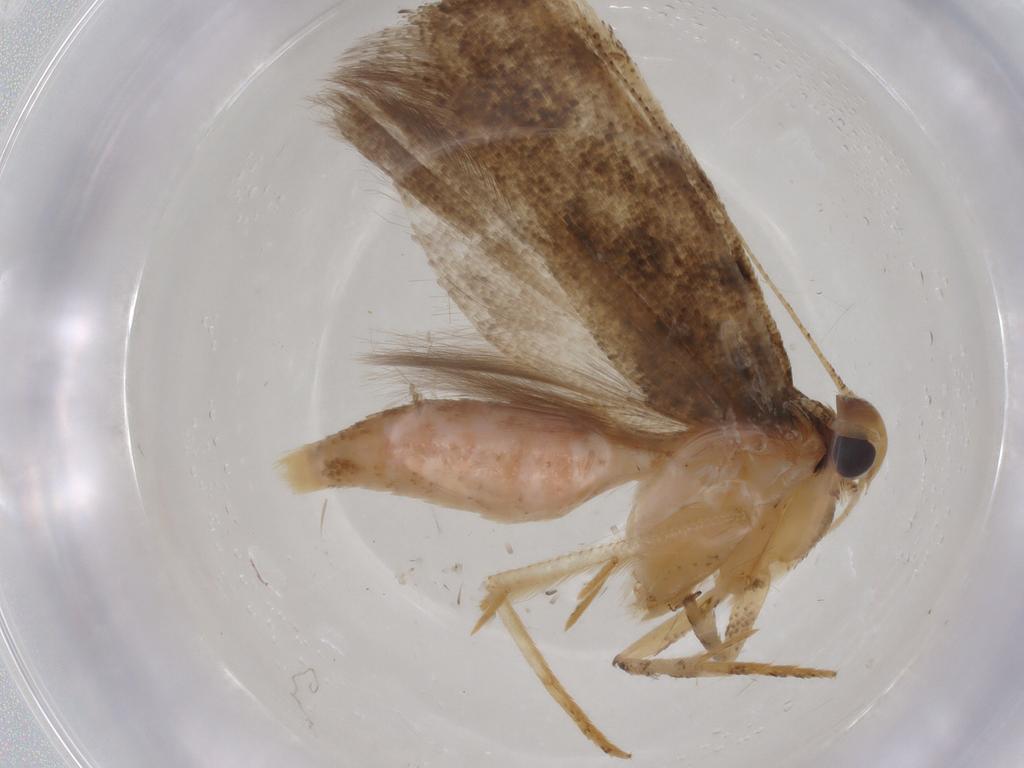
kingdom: Animalia
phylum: Arthropoda
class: Insecta
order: Lepidoptera
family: Gelechiidae
